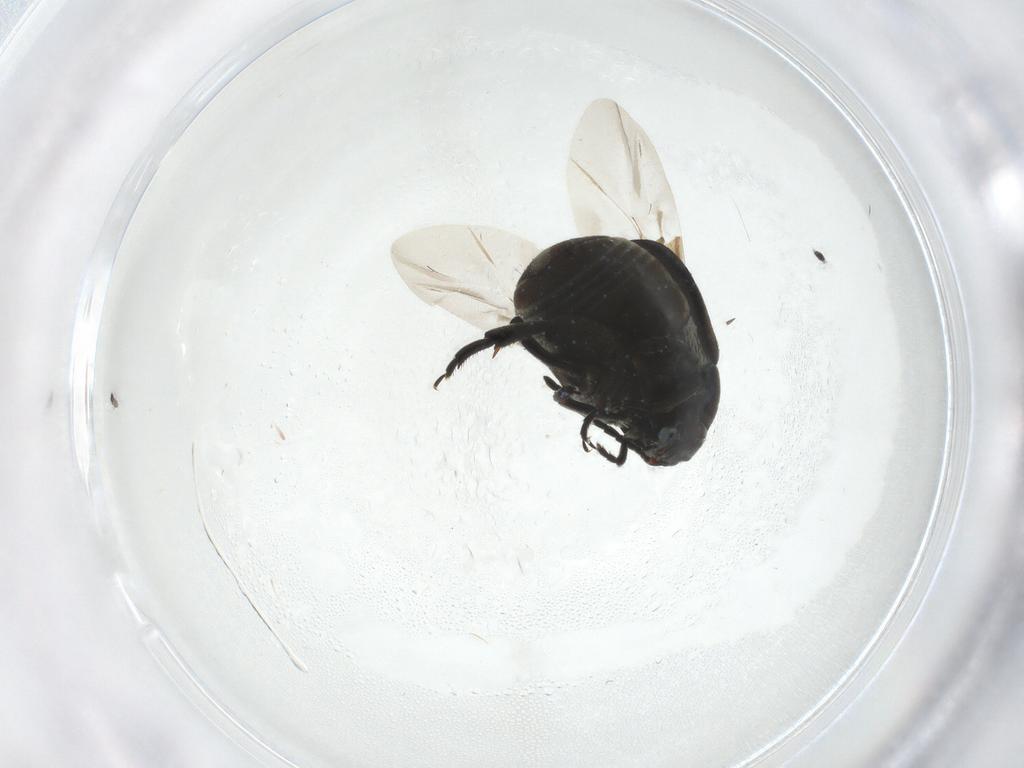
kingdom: Animalia
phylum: Arthropoda
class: Insecta
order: Coleoptera
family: Chrysomelidae
